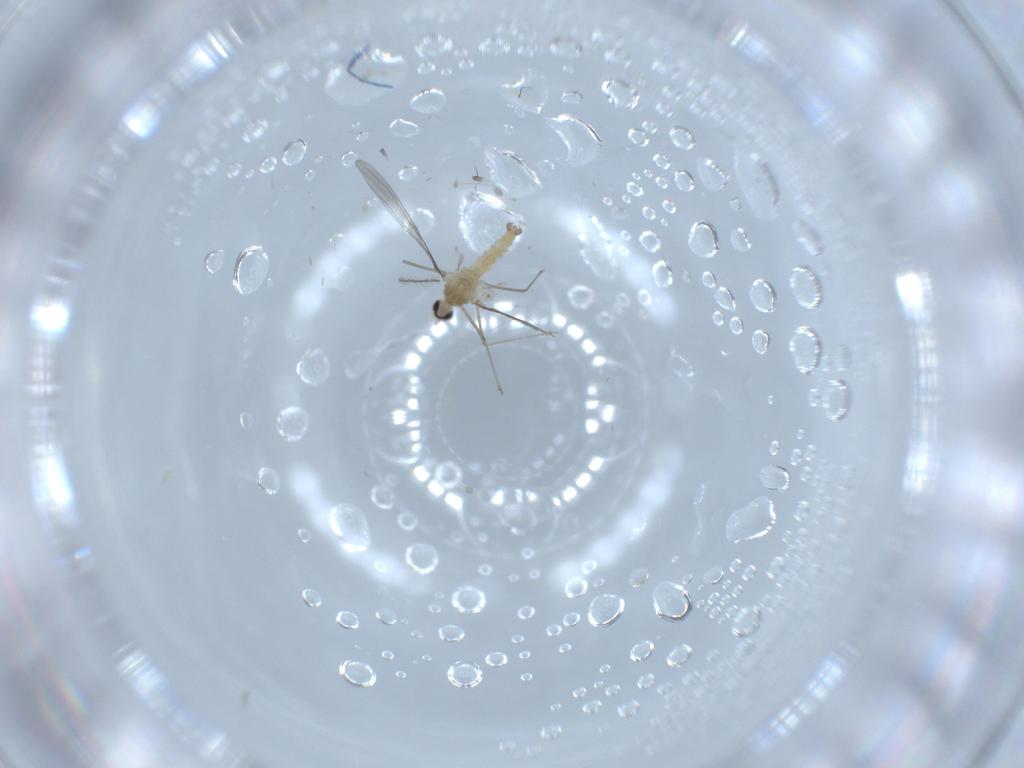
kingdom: Animalia
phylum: Arthropoda
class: Insecta
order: Diptera
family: Cecidomyiidae
